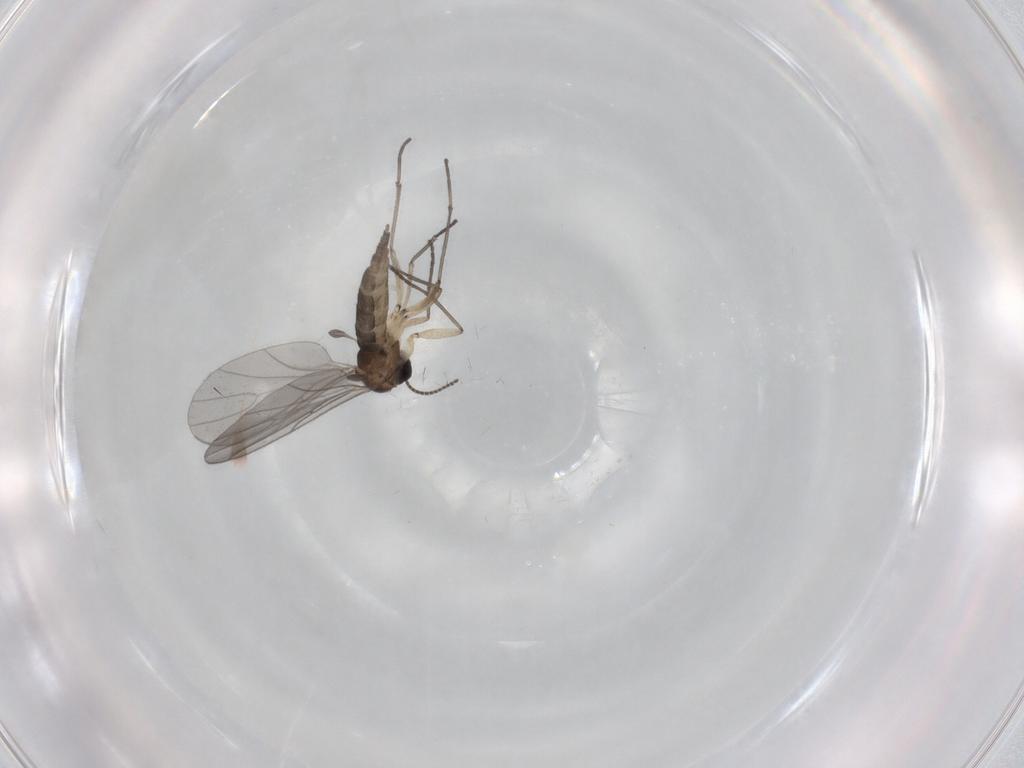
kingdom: Animalia
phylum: Arthropoda
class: Insecta
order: Diptera
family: Sciaridae
